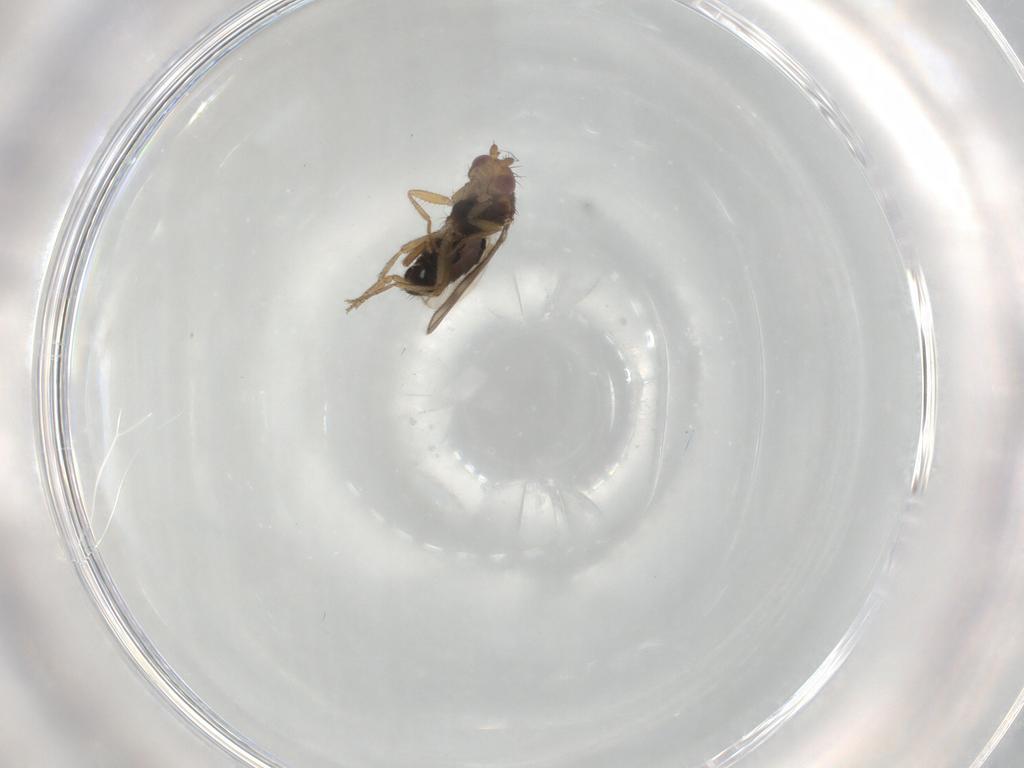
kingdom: Animalia
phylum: Arthropoda
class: Insecta
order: Diptera
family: Sphaeroceridae
